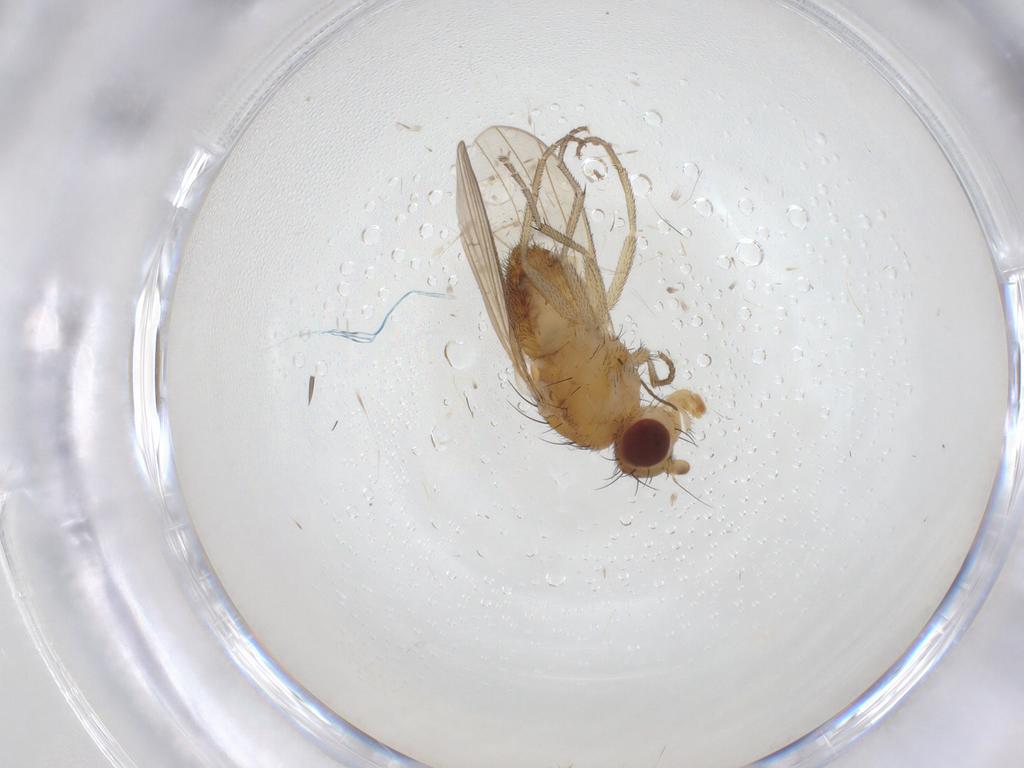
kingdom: Animalia
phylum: Arthropoda
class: Insecta
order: Diptera
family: Heleomyzidae
